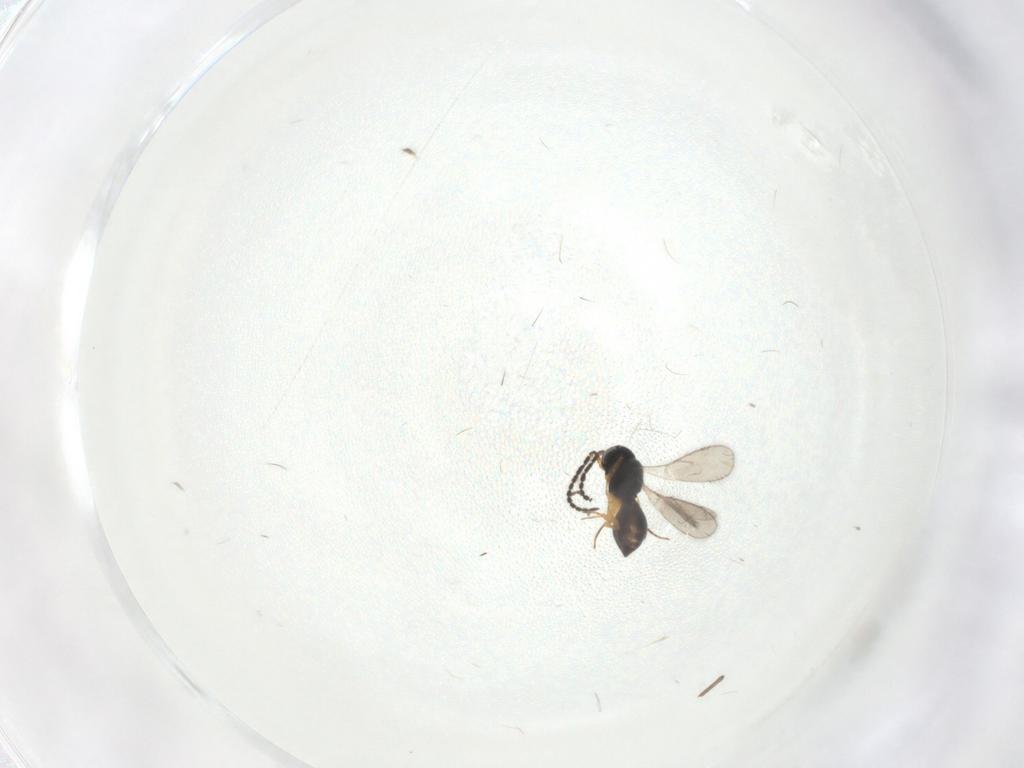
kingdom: Animalia
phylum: Arthropoda
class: Insecta
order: Hymenoptera
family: Scelionidae
